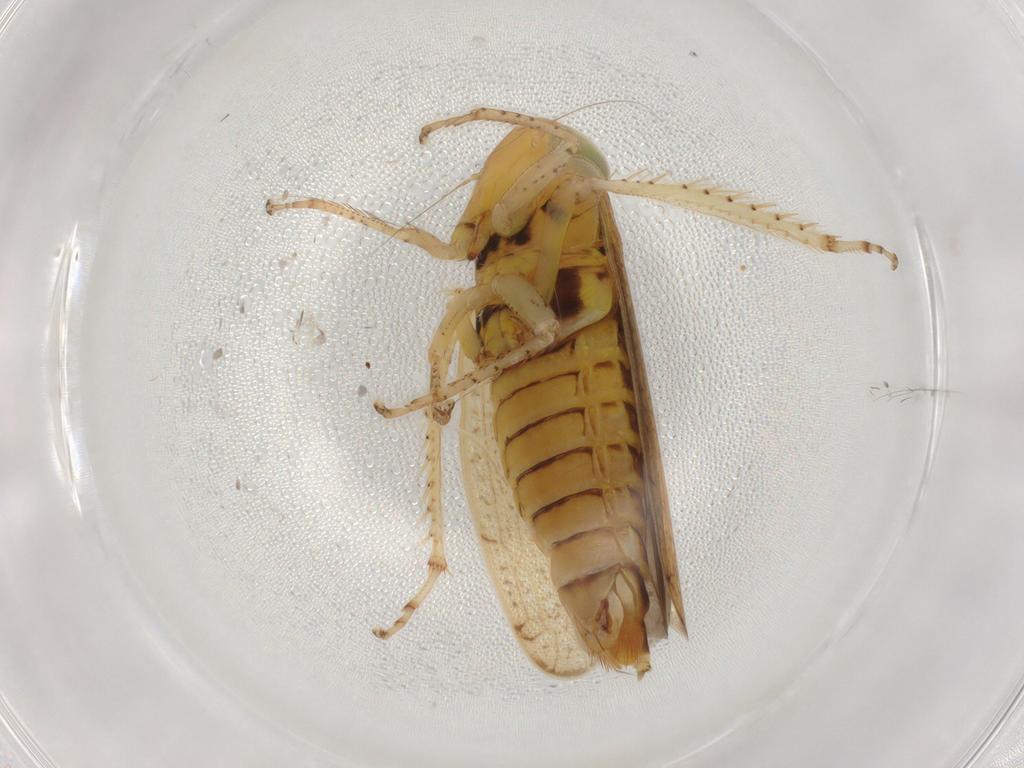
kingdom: Animalia
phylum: Arthropoda
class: Insecta
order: Hemiptera
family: Cicadellidae
